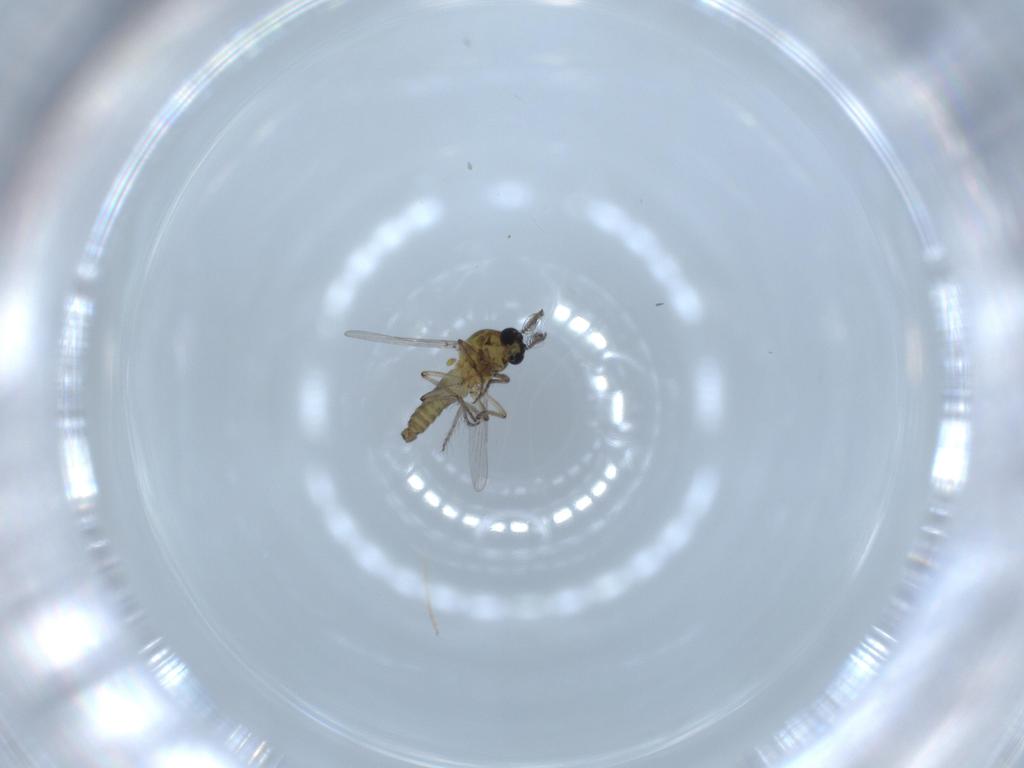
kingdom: Animalia
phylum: Arthropoda
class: Insecta
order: Diptera
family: Ceratopogonidae
